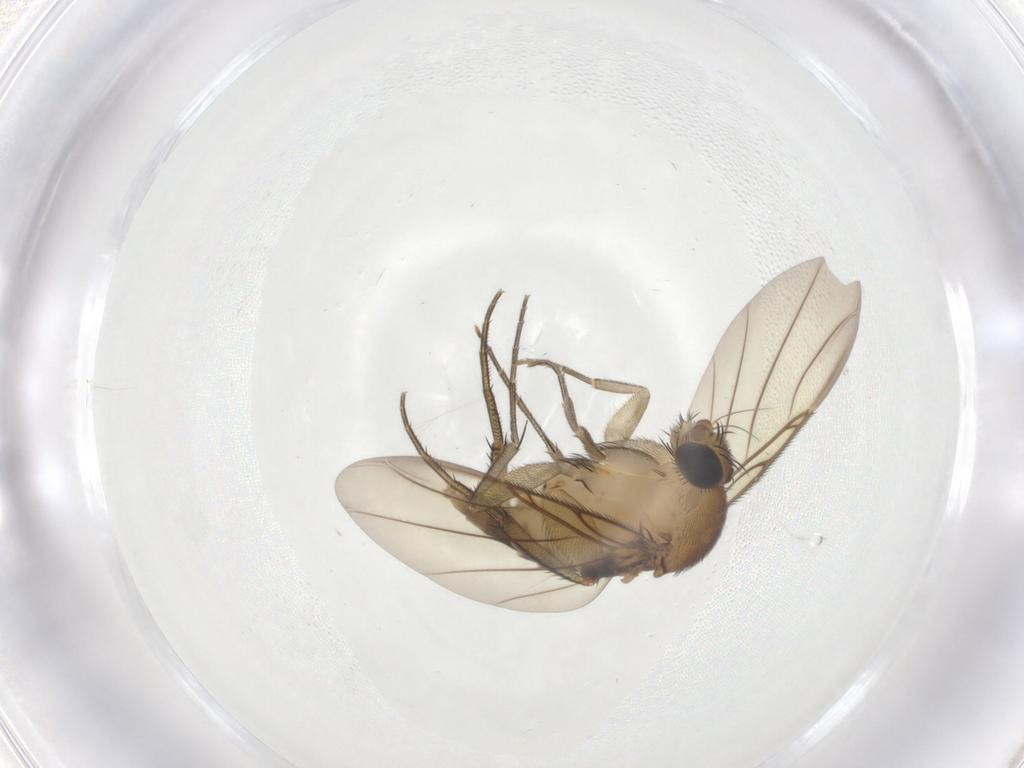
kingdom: Animalia
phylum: Arthropoda
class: Insecta
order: Diptera
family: Phoridae
